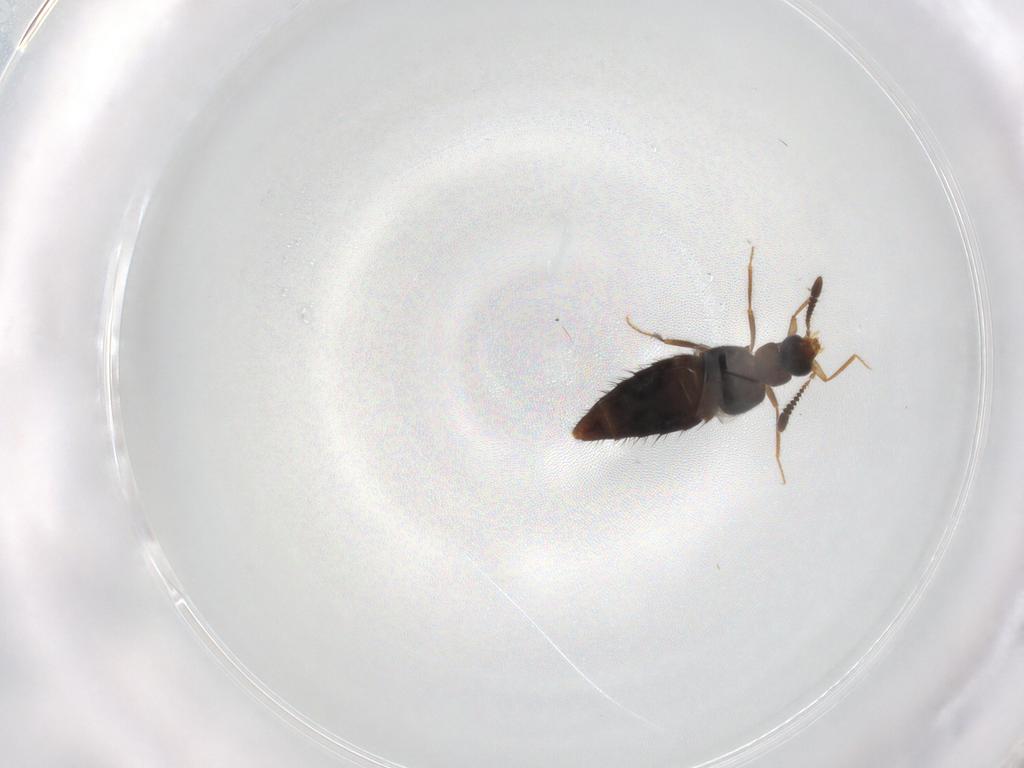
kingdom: Animalia
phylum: Arthropoda
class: Insecta
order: Coleoptera
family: Staphylinidae
